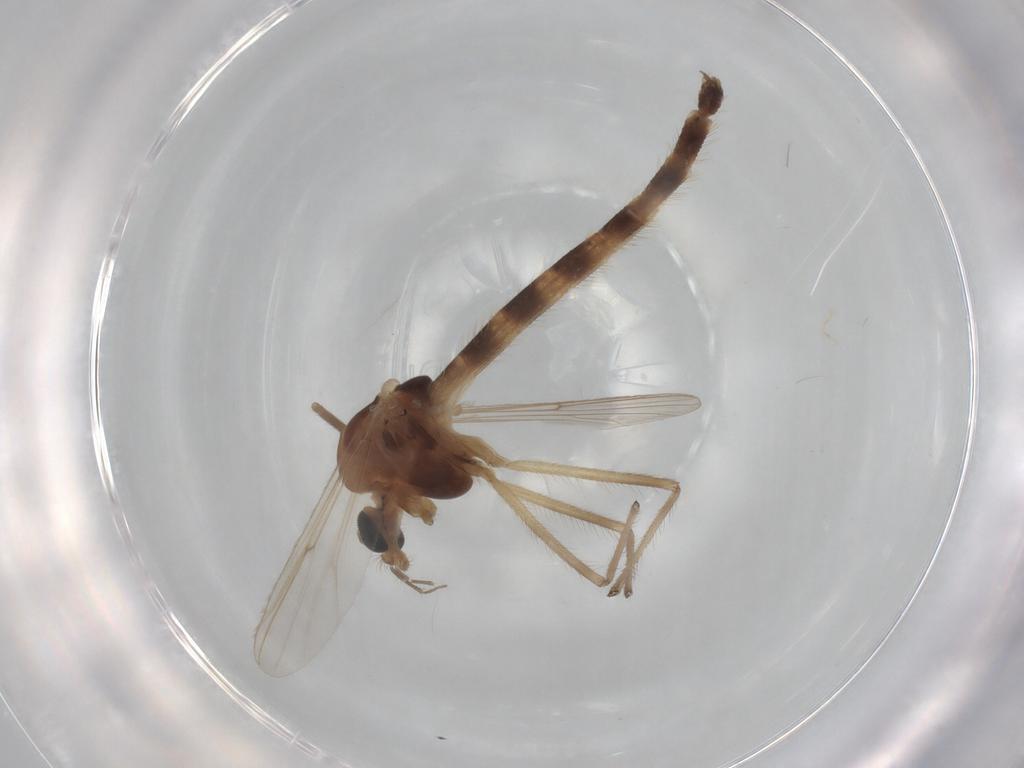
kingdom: Animalia
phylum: Arthropoda
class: Insecta
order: Diptera
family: Chironomidae
